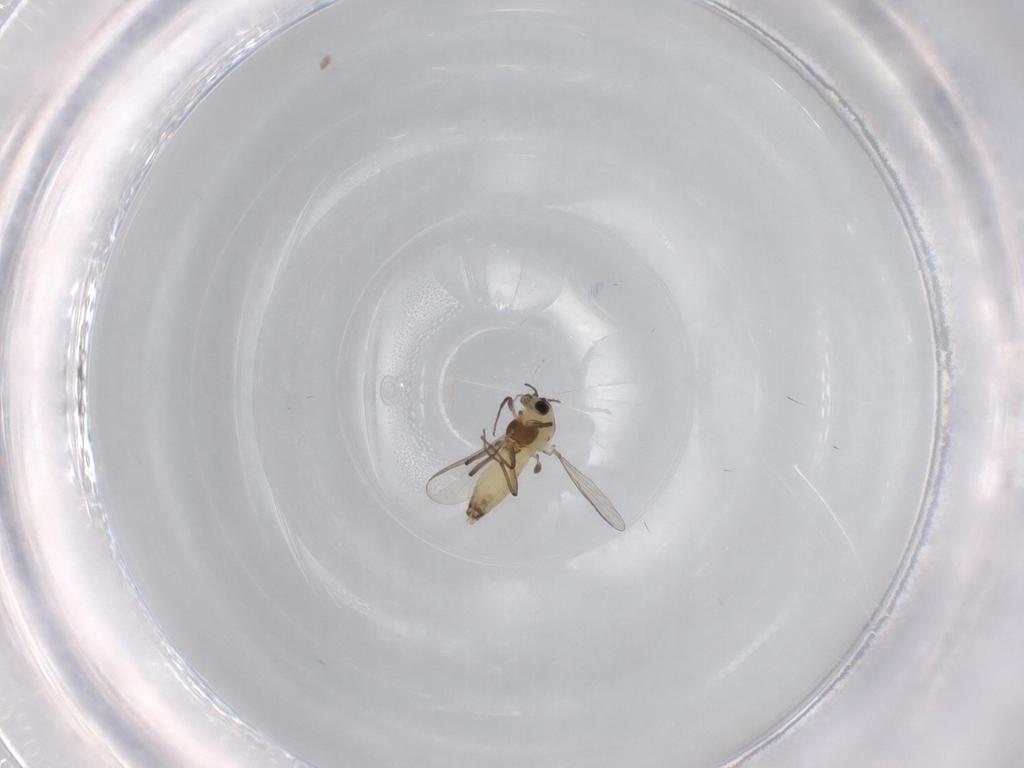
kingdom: Animalia
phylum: Arthropoda
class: Insecta
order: Diptera
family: Chironomidae
